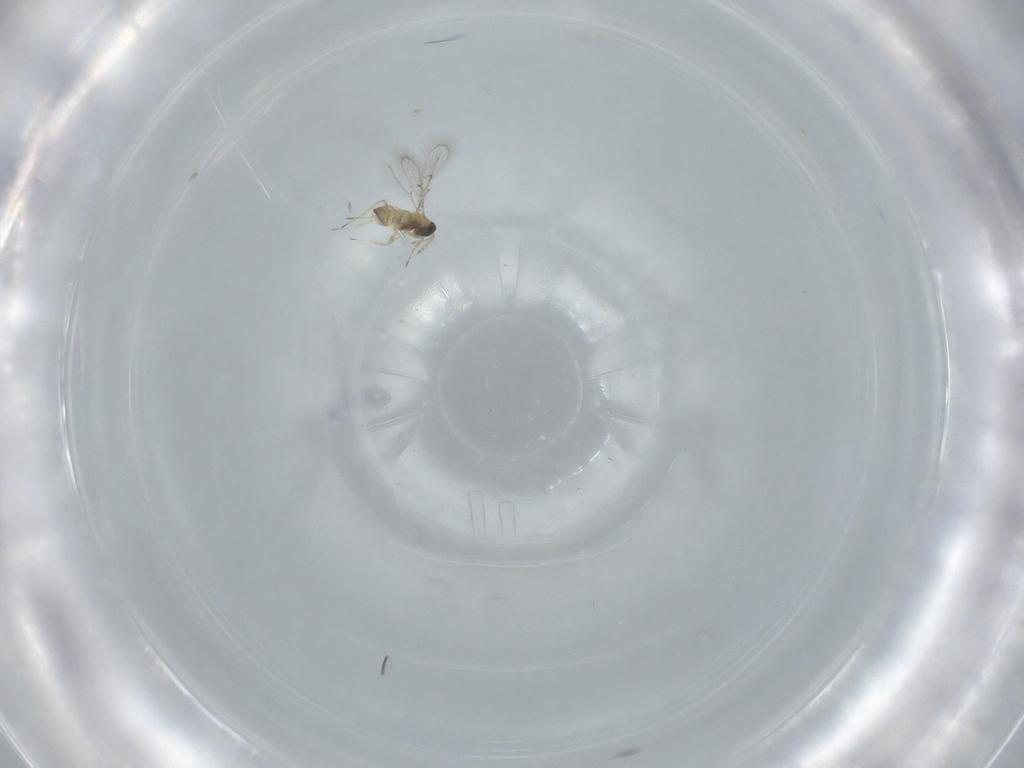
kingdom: Animalia
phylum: Arthropoda
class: Insecta
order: Hymenoptera
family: Trichogrammatidae
